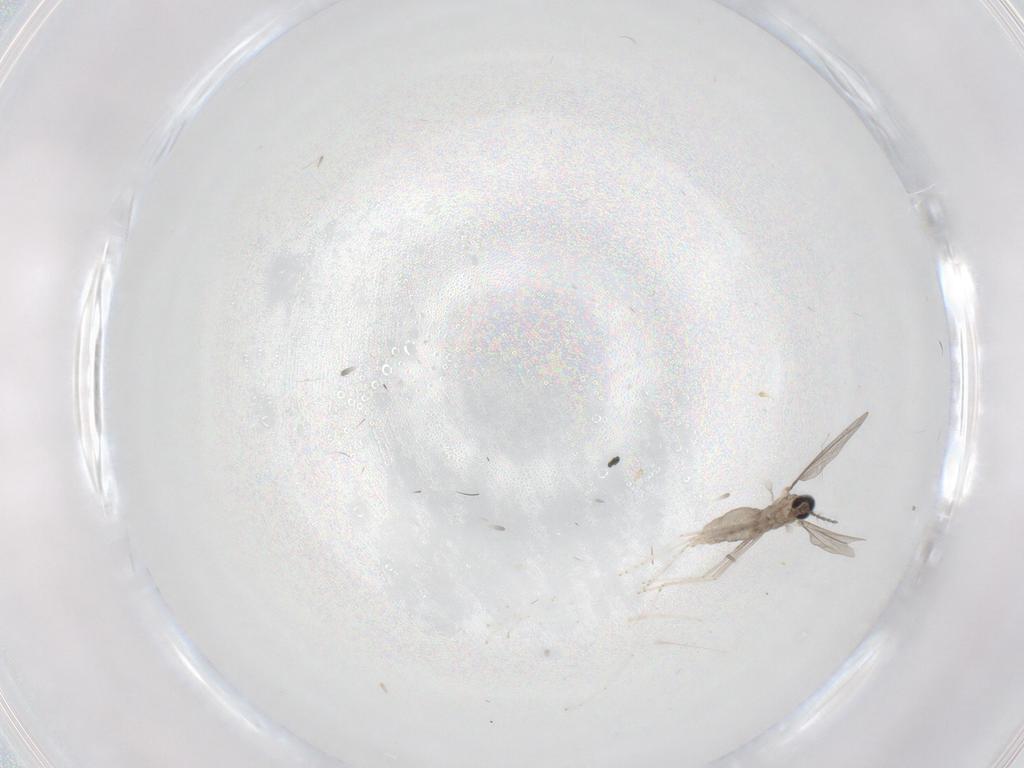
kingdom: Animalia
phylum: Arthropoda
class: Insecta
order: Diptera
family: Cecidomyiidae
